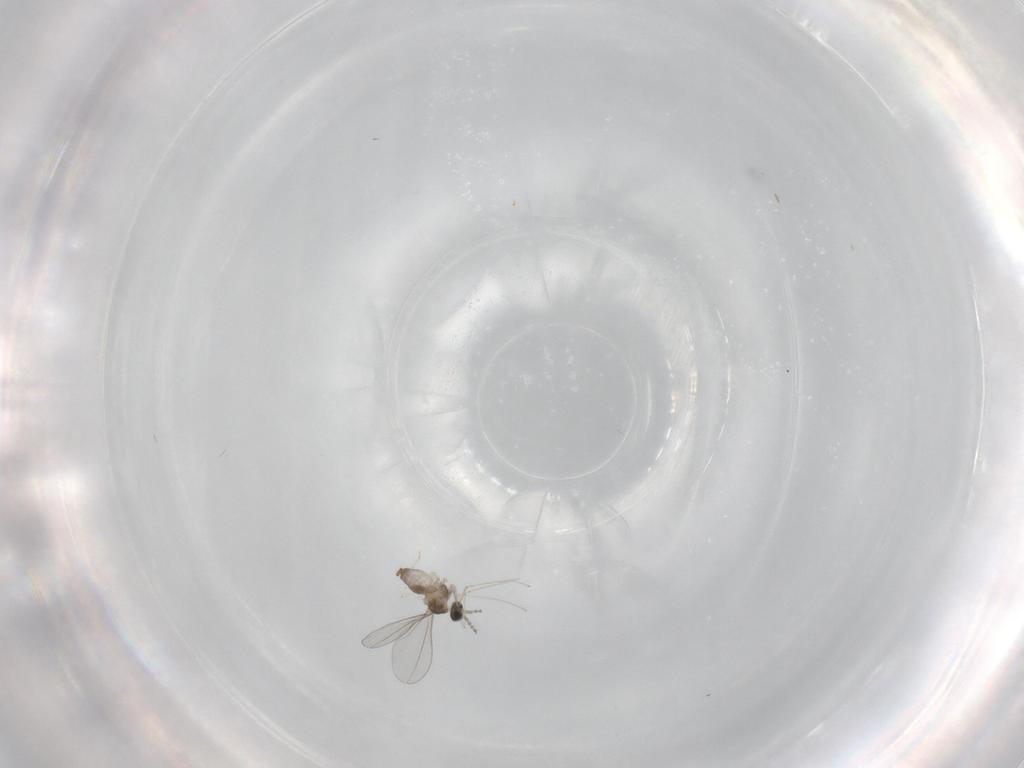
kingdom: Animalia
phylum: Arthropoda
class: Insecta
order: Diptera
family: Cecidomyiidae
